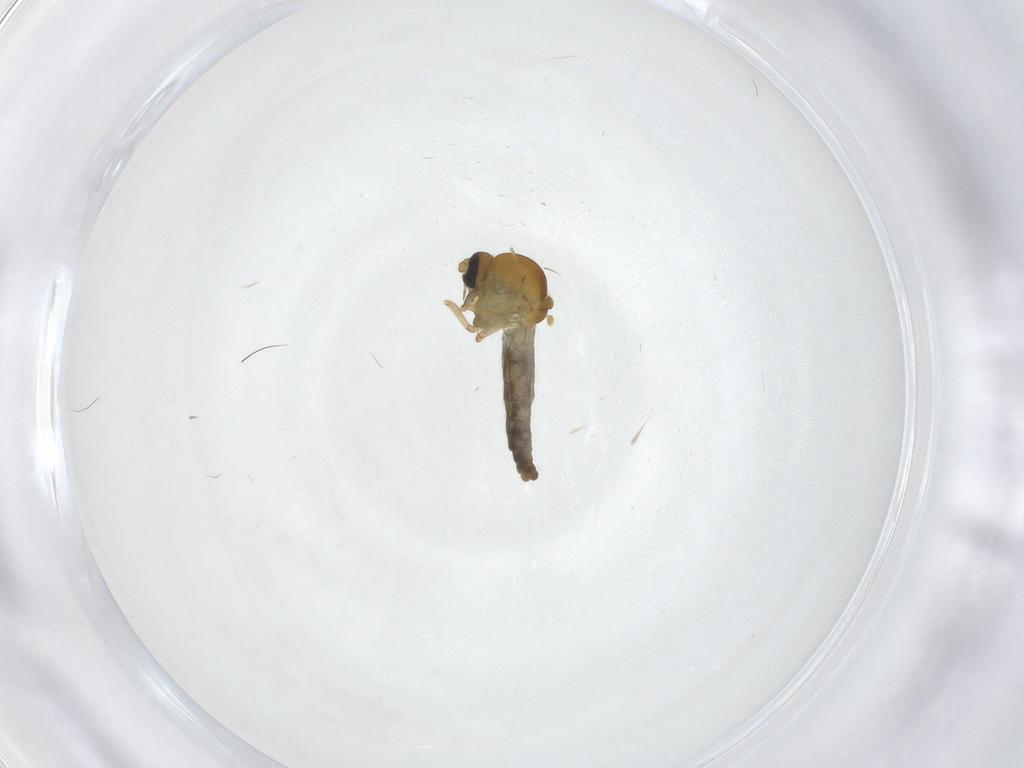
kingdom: Animalia
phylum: Arthropoda
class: Insecta
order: Diptera
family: Ceratopogonidae
